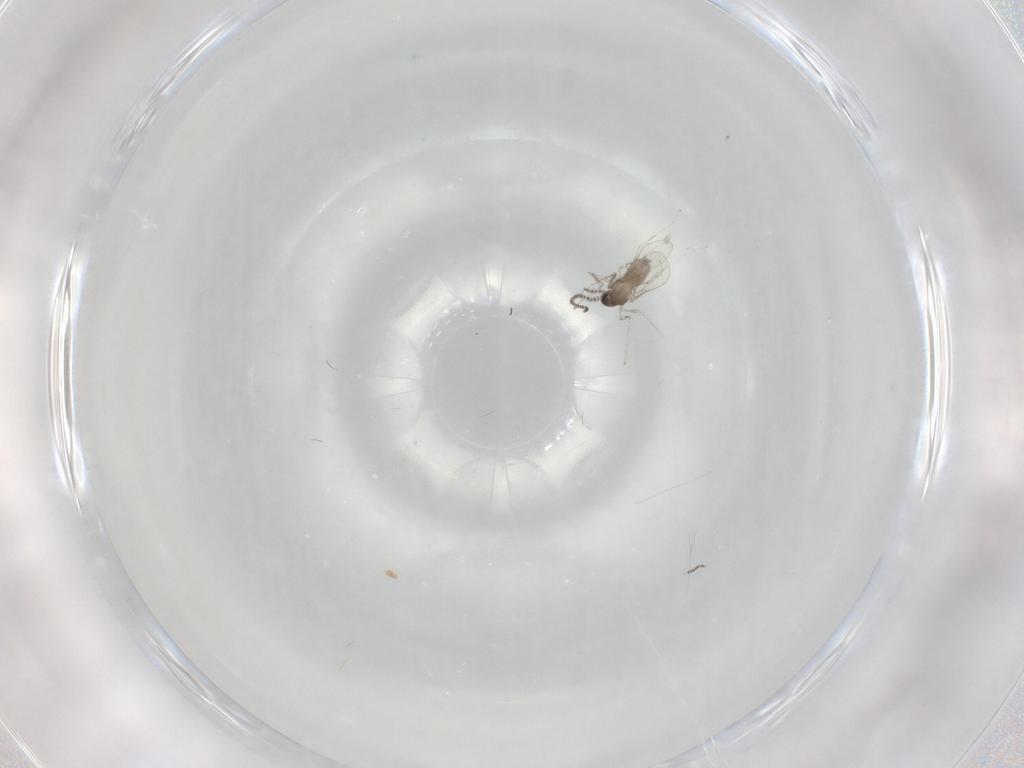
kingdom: Animalia
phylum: Arthropoda
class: Insecta
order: Diptera
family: Cecidomyiidae
